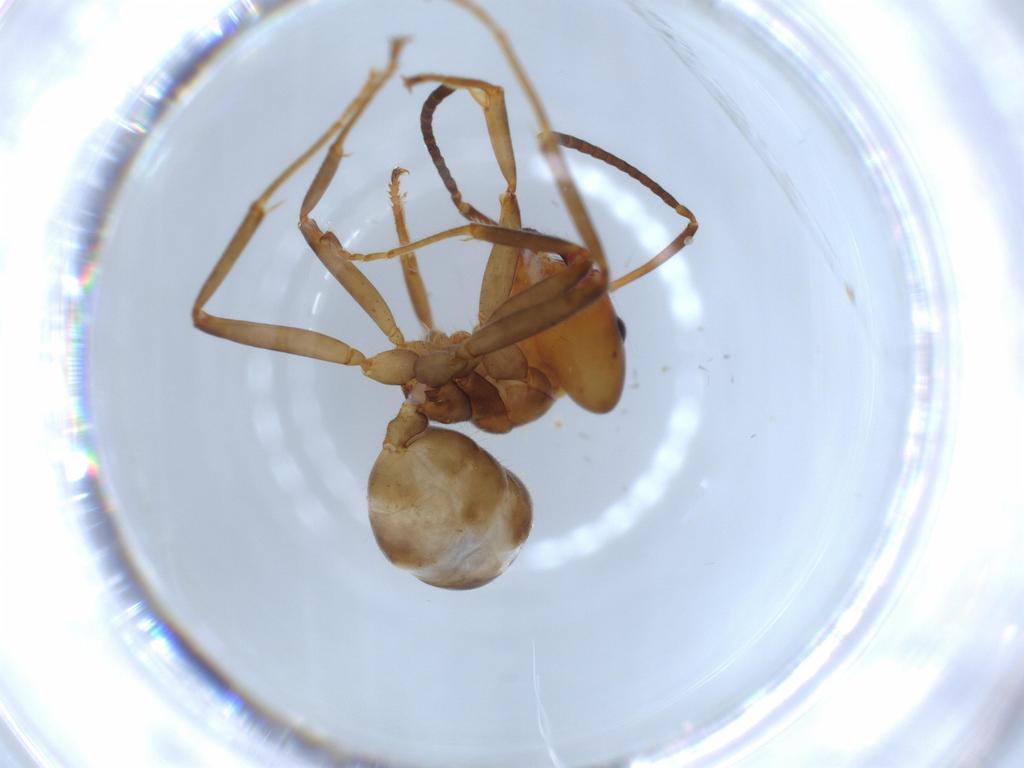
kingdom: Animalia
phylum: Arthropoda
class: Insecta
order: Hymenoptera
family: Formicidae
